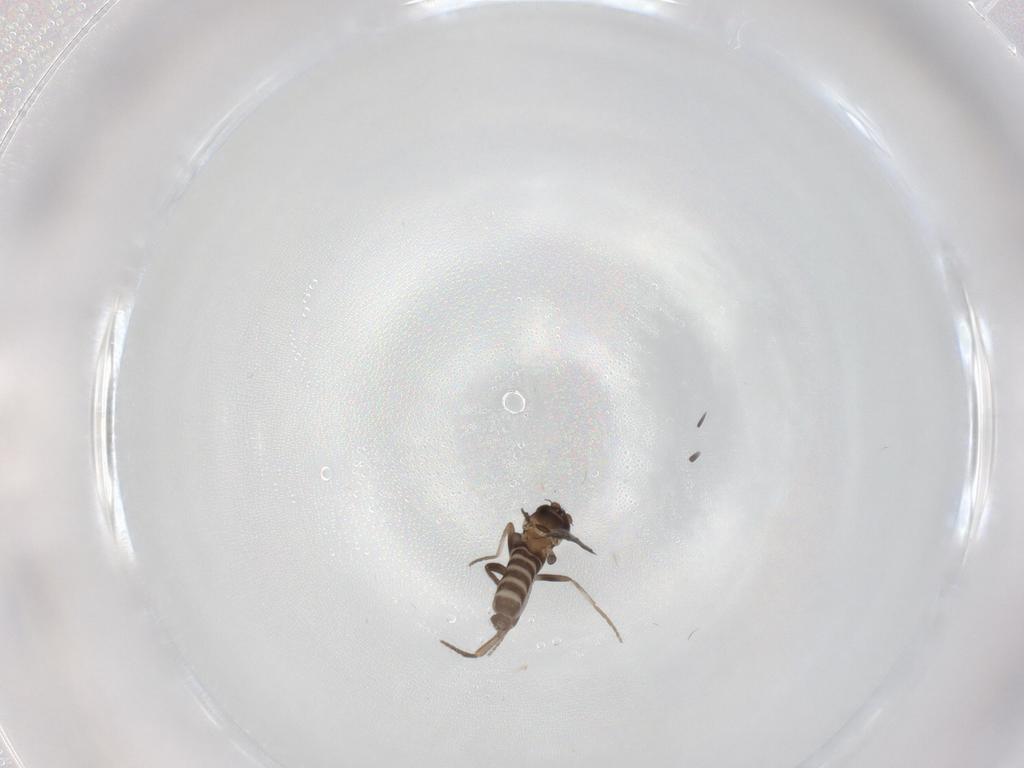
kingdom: Animalia
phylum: Arthropoda
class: Insecta
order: Diptera
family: Phoridae
